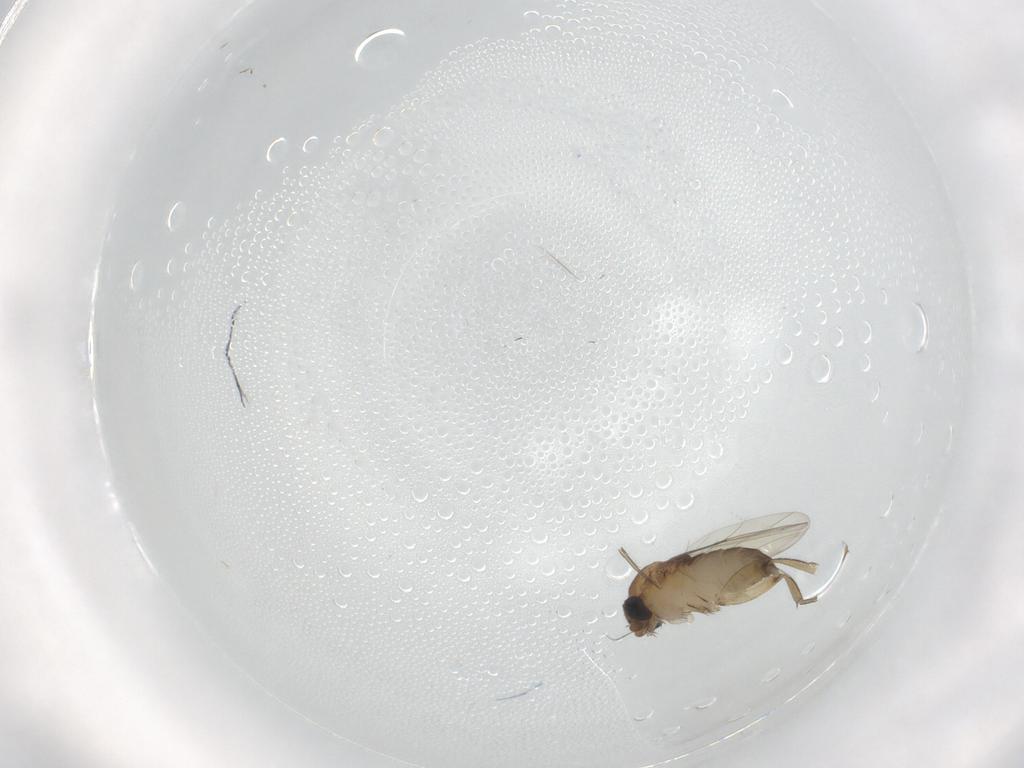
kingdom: Animalia
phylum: Arthropoda
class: Insecta
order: Diptera
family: Phoridae
